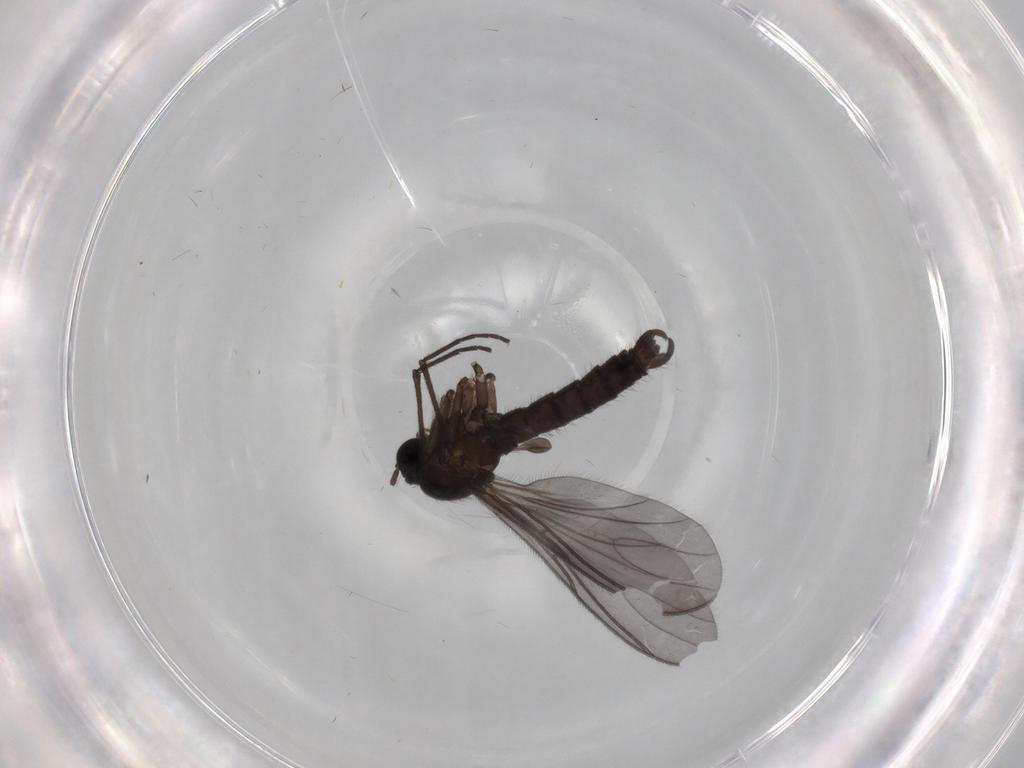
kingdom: Animalia
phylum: Arthropoda
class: Insecta
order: Diptera
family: Sciaridae
